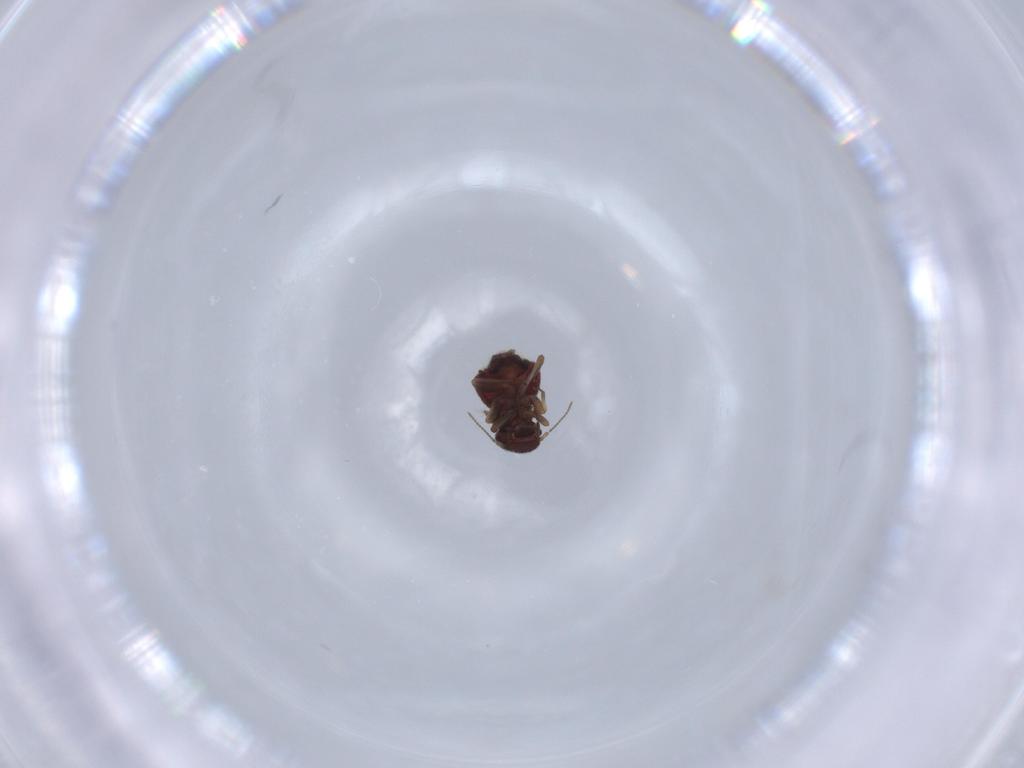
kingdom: Animalia
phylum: Arthropoda
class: Insecta
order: Psocodea
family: Archipsocidae
